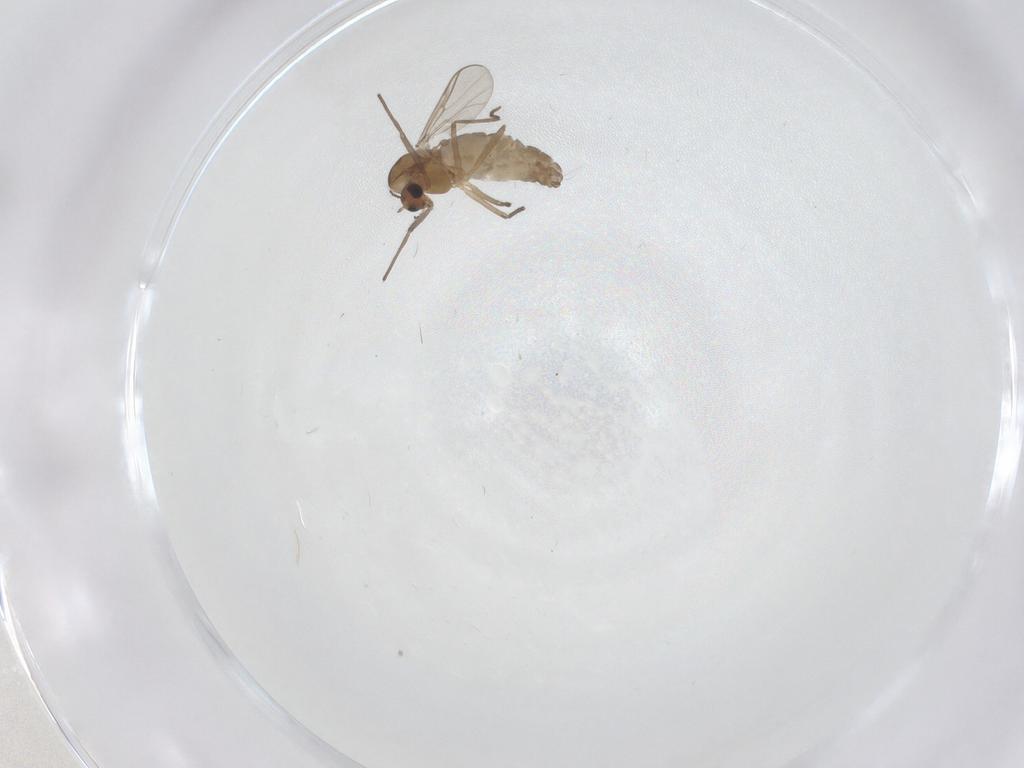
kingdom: Animalia
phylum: Arthropoda
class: Insecta
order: Diptera
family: Chironomidae
